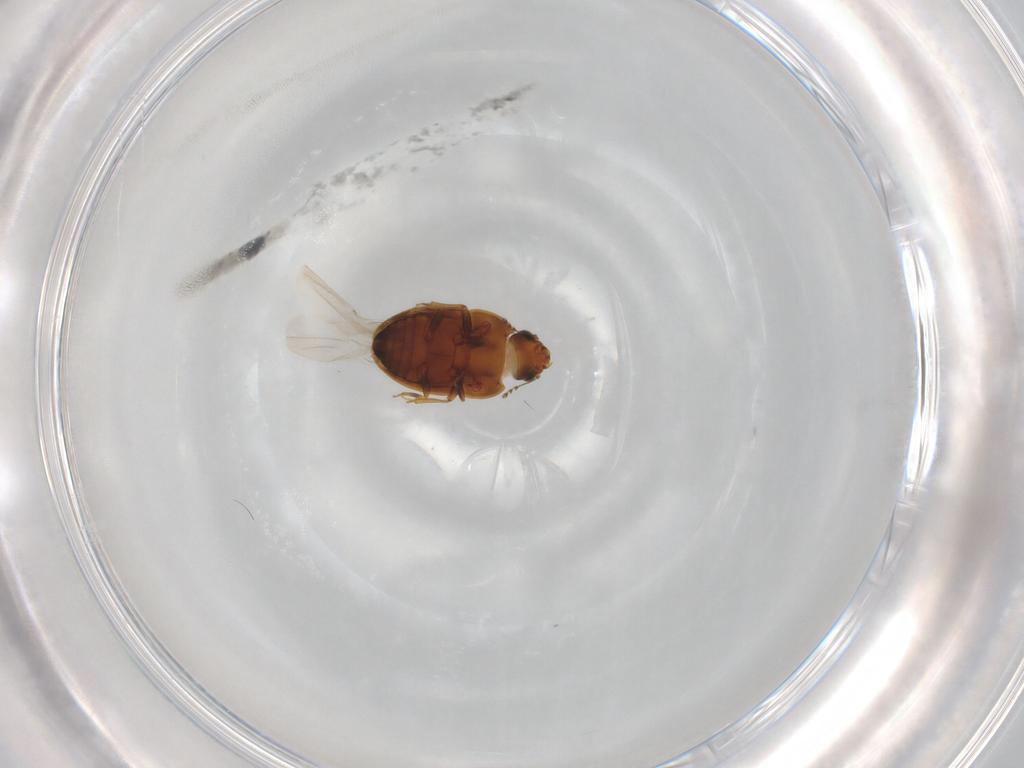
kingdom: Animalia
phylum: Arthropoda
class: Insecta
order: Coleoptera
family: Laemophloeidae
